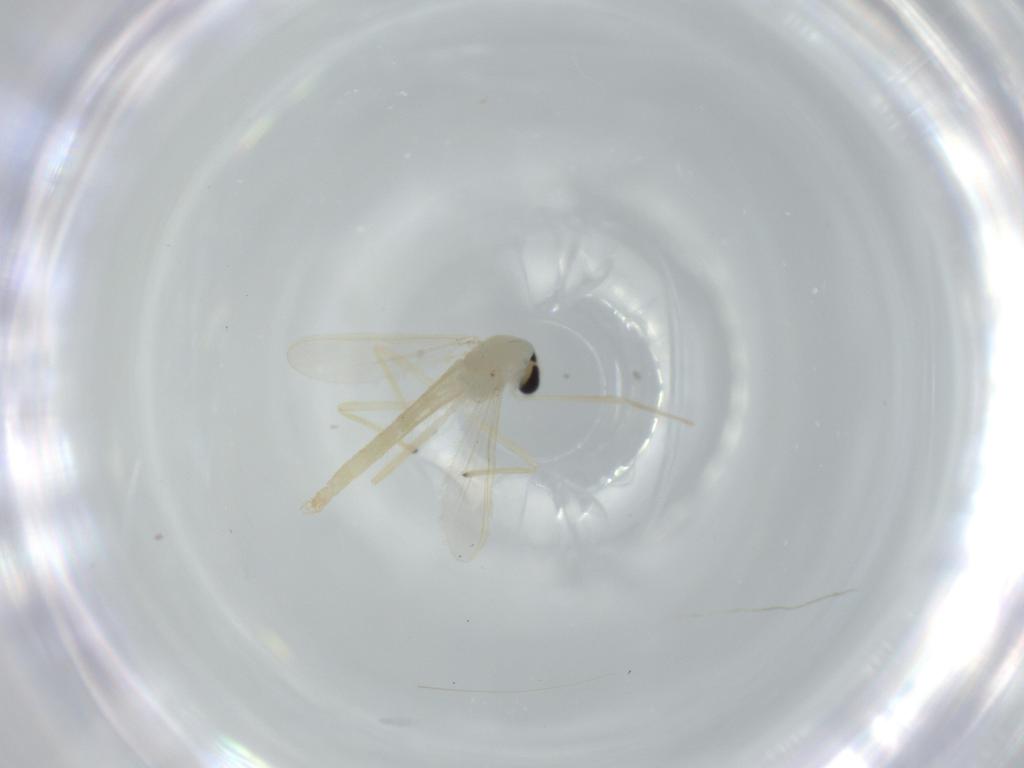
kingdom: Animalia
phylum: Arthropoda
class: Insecta
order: Diptera
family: Chironomidae
